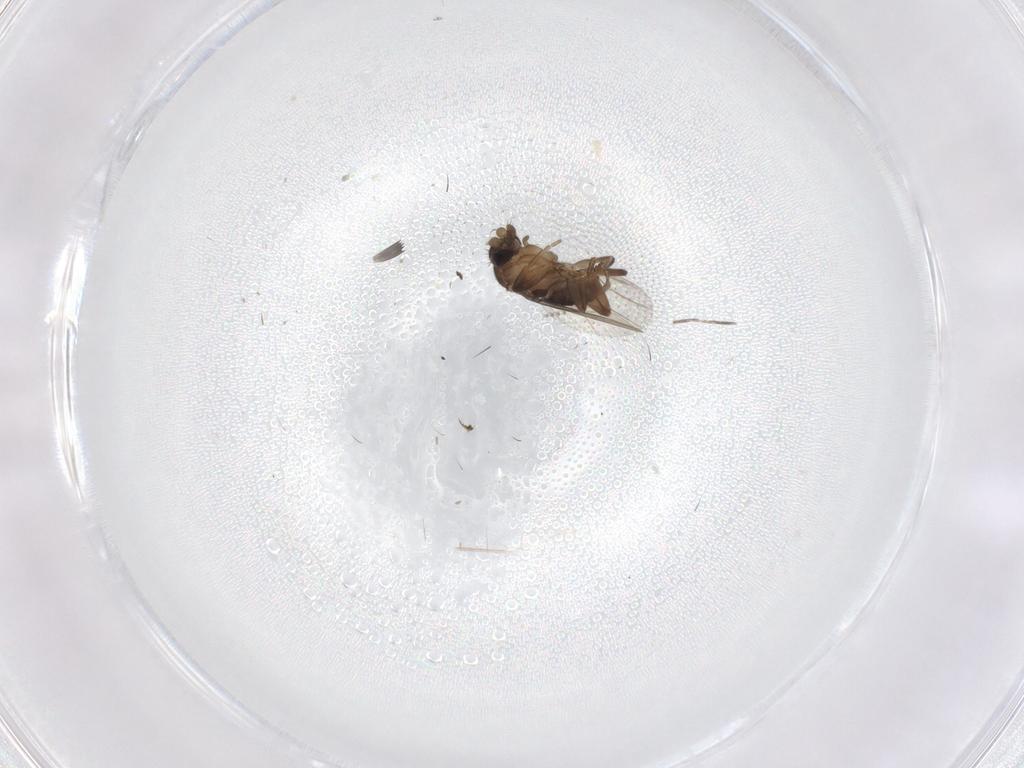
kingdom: Animalia
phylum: Arthropoda
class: Insecta
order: Diptera
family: Psychodidae
